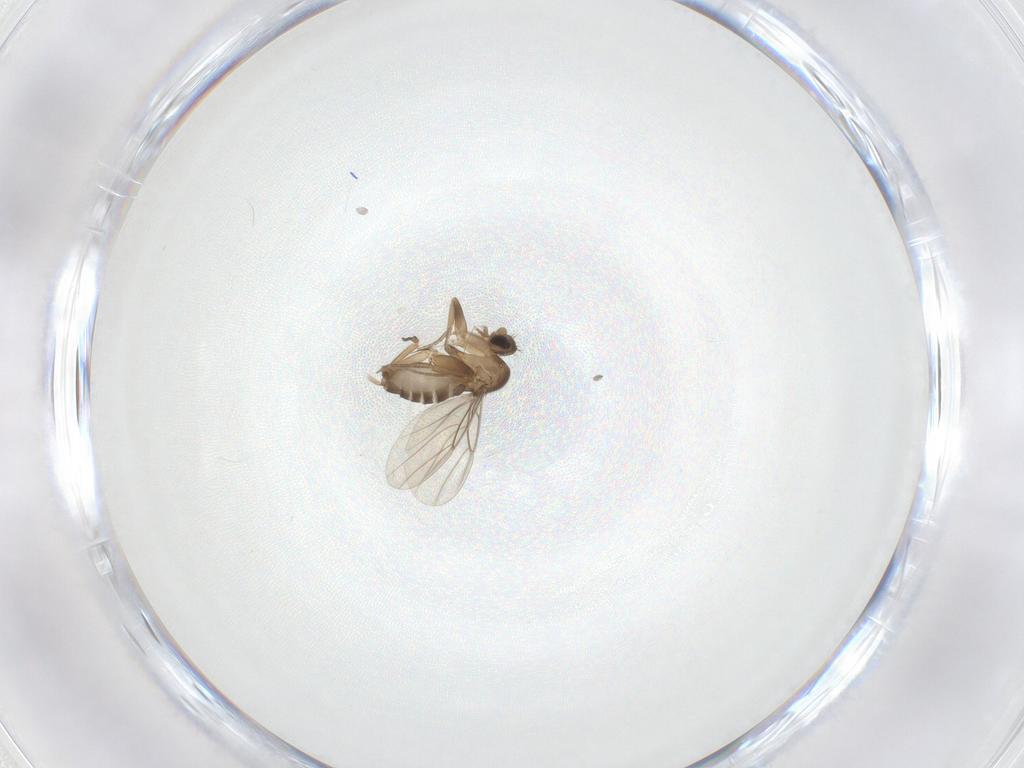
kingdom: Animalia
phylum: Arthropoda
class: Insecta
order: Diptera
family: Phoridae
